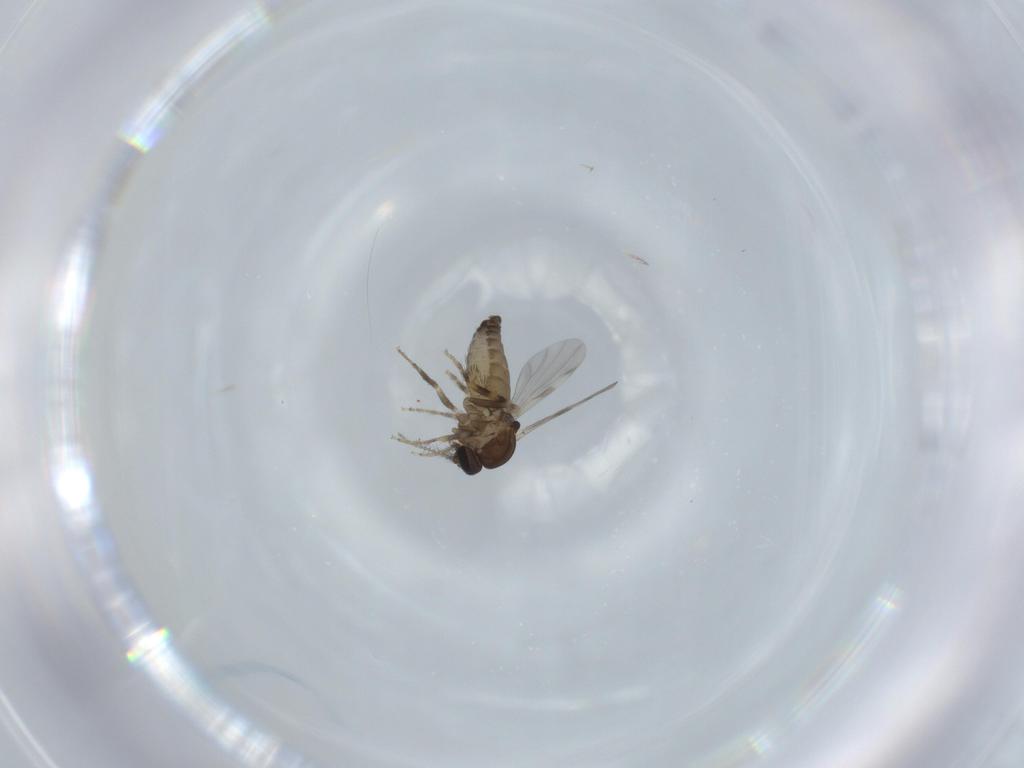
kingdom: Animalia
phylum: Arthropoda
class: Insecta
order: Diptera
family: Ceratopogonidae
